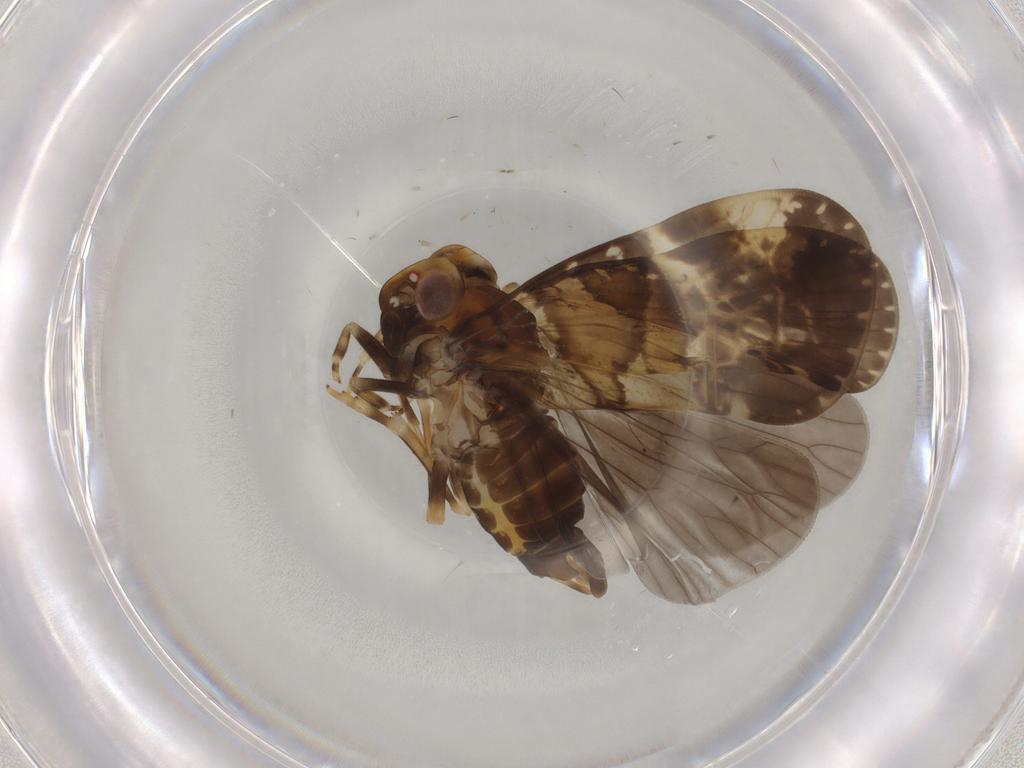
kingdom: Animalia
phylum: Arthropoda
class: Insecta
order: Hemiptera
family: Cixiidae
